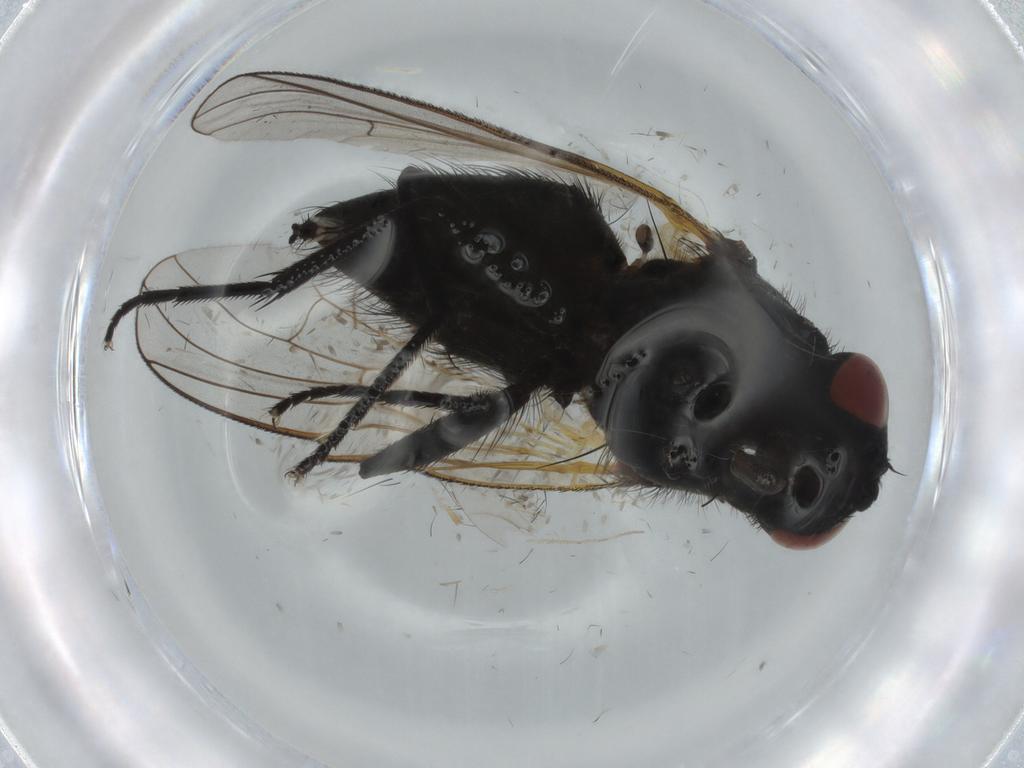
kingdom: Animalia
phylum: Arthropoda
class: Insecta
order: Diptera
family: Muscidae
